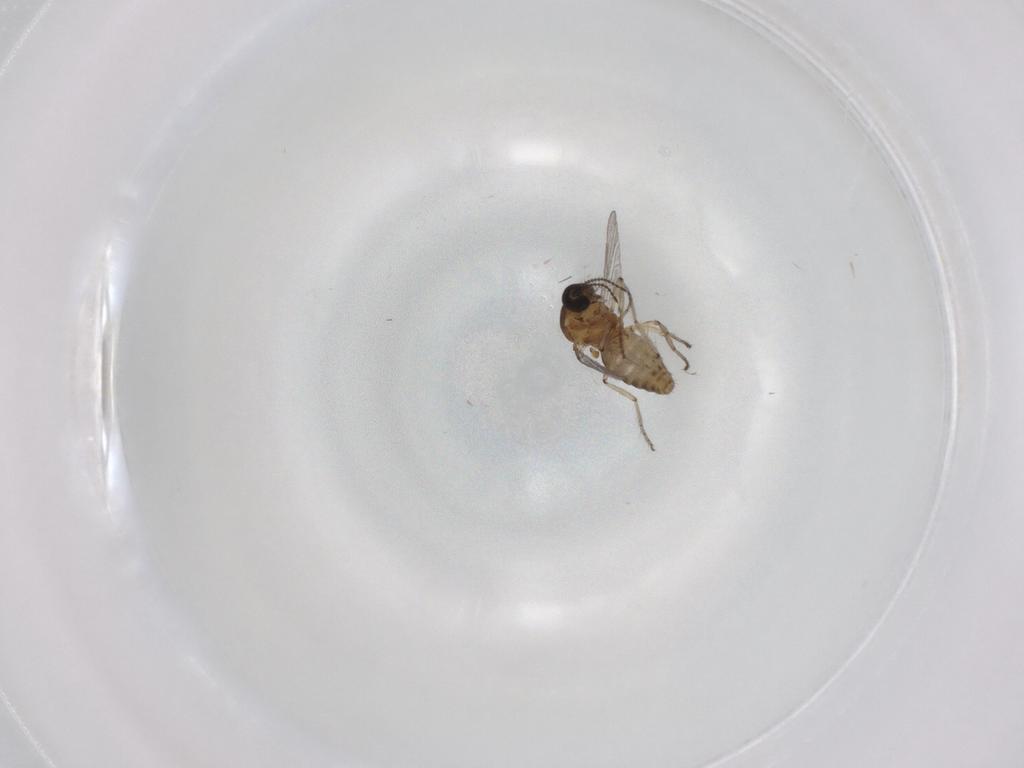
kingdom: Animalia
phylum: Arthropoda
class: Insecta
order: Diptera
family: Ceratopogonidae
